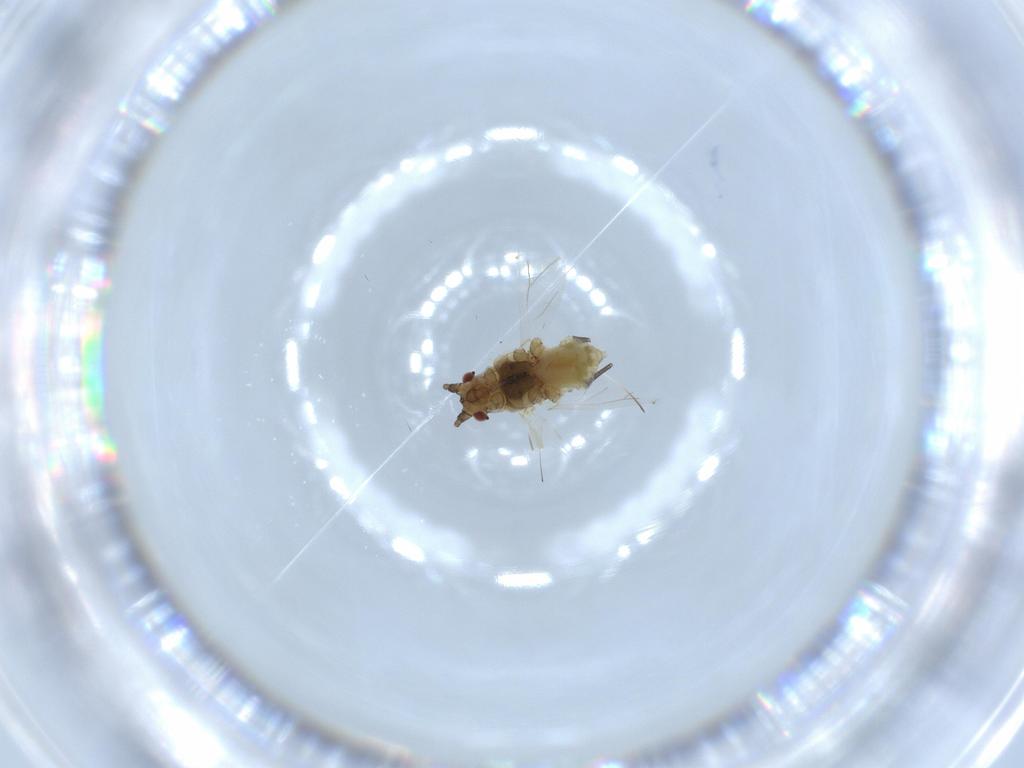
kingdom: Animalia
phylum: Arthropoda
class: Insecta
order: Hemiptera
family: Aphididae
